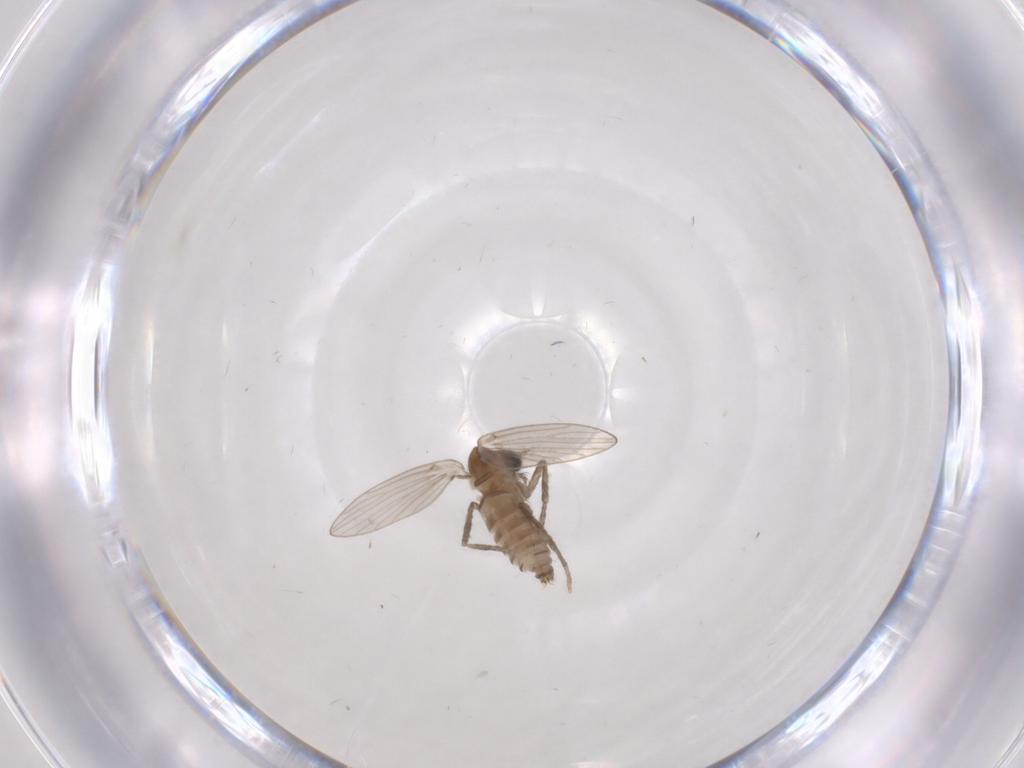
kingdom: Animalia
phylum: Arthropoda
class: Insecta
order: Diptera
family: Psychodidae
